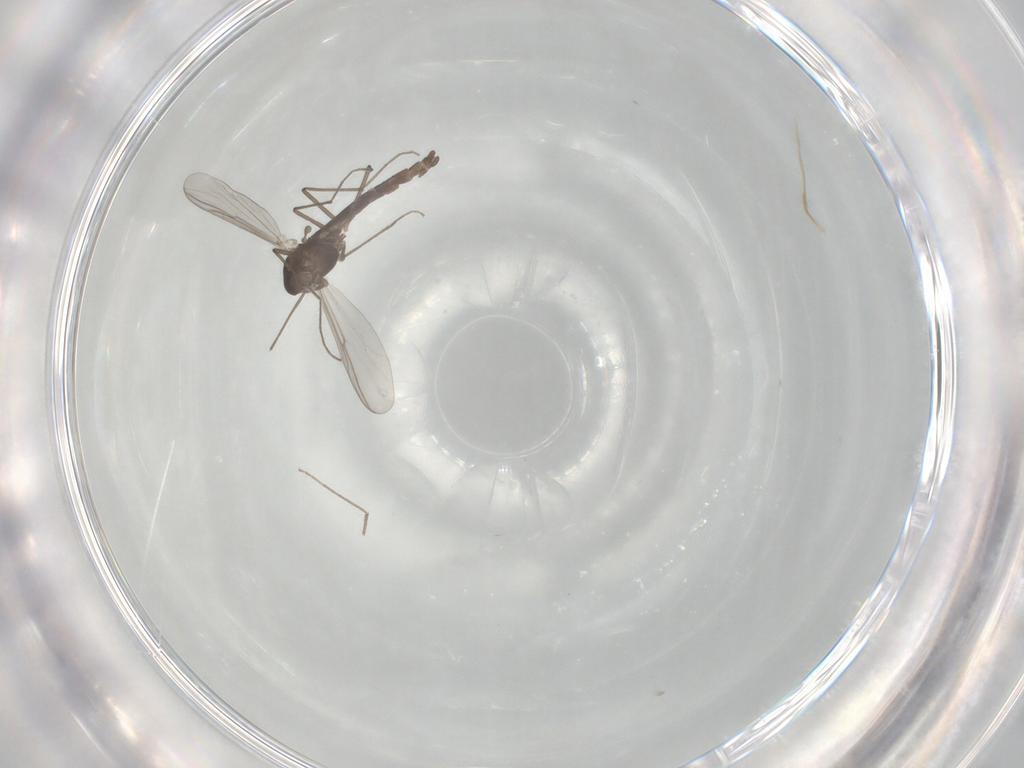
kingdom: Animalia
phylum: Arthropoda
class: Insecta
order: Diptera
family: Chironomidae
